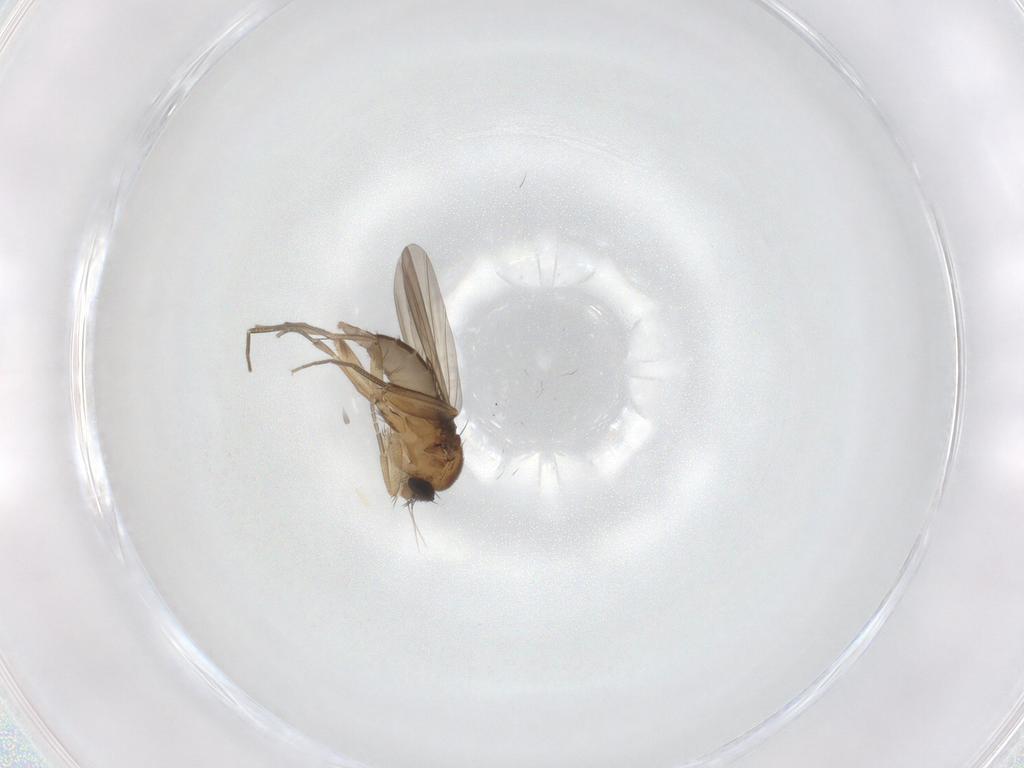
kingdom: Animalia
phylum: Arthropoda
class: Insecta
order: Diptera
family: Phoridae
